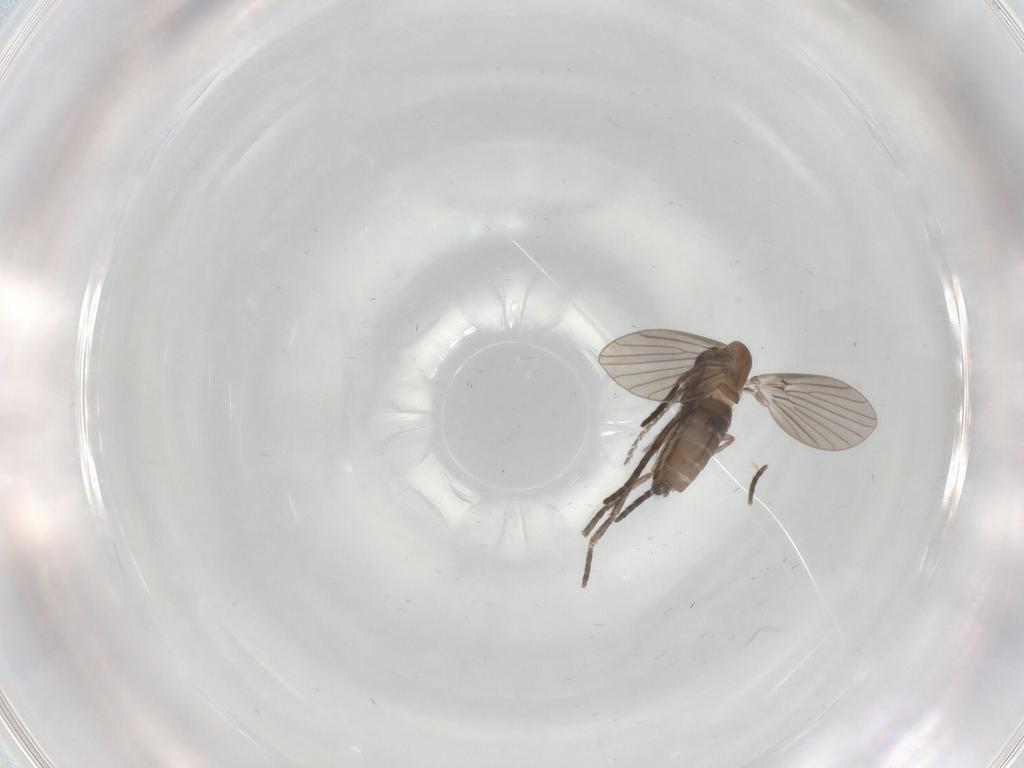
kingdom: Animalia
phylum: Arthropoda
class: Insecta
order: Diptera
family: Psychodidae
